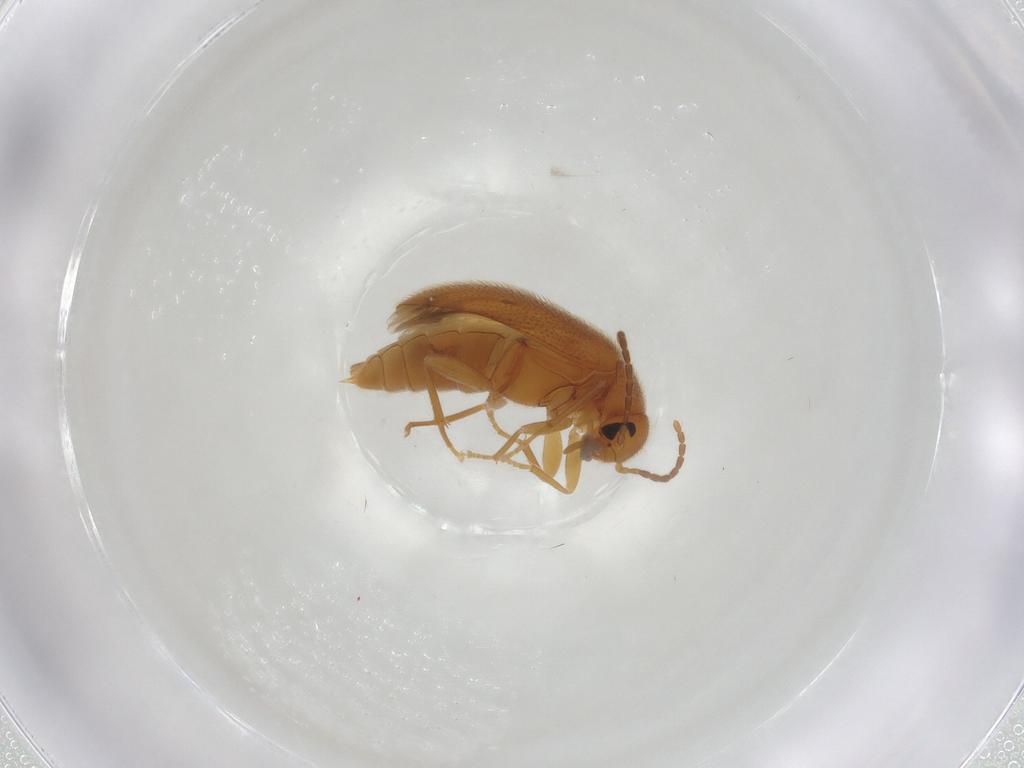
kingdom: Animalia
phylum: Arthropoda
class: Insecta
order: Coleoptera
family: Scraptiidae
